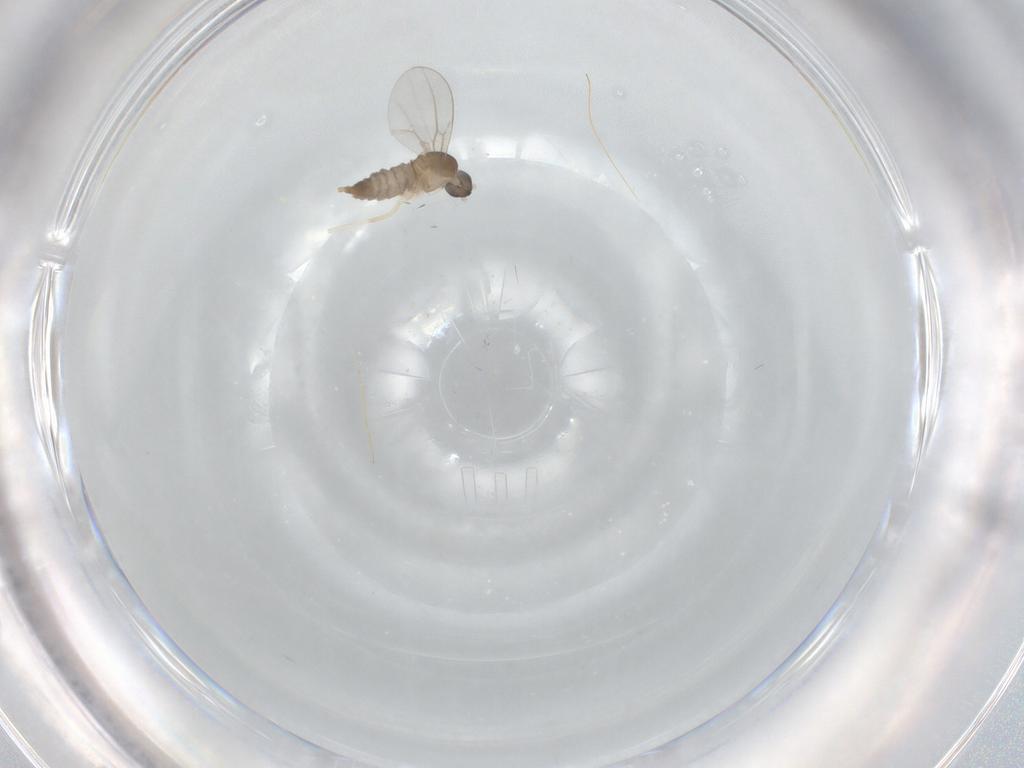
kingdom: Animalia
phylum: Arthropoda
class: Insecta
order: Diptera
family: Cecidomyiidae
